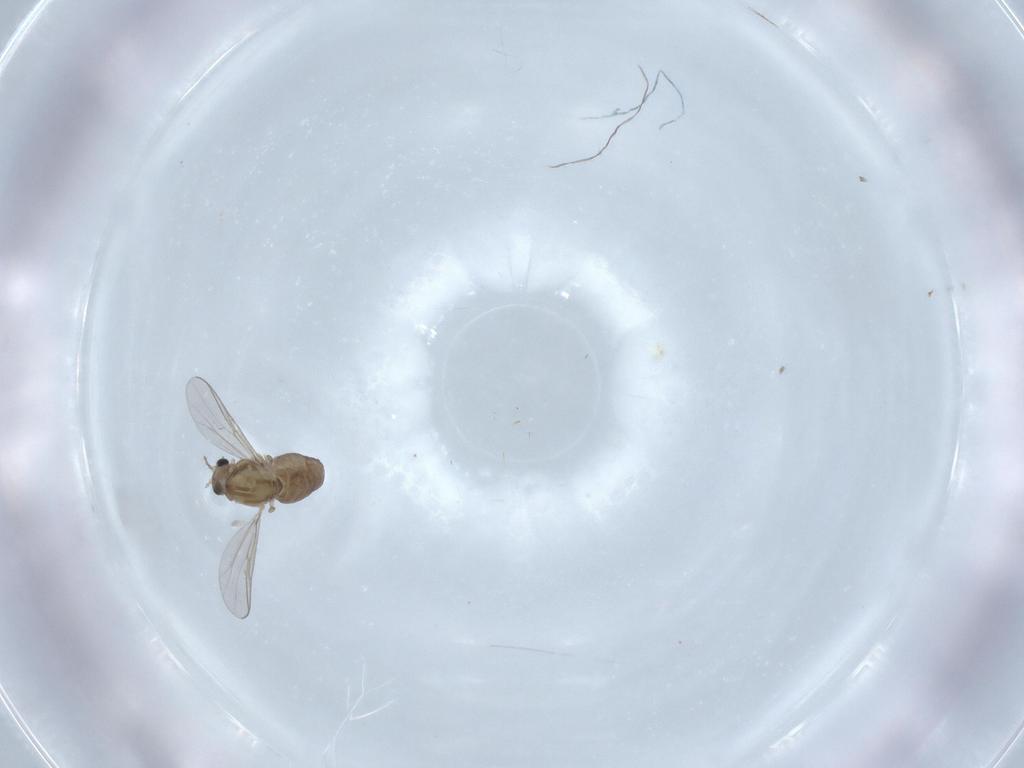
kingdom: Animalia
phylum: Arthropoda
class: Insecta
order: Diptera
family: Chironomidae
